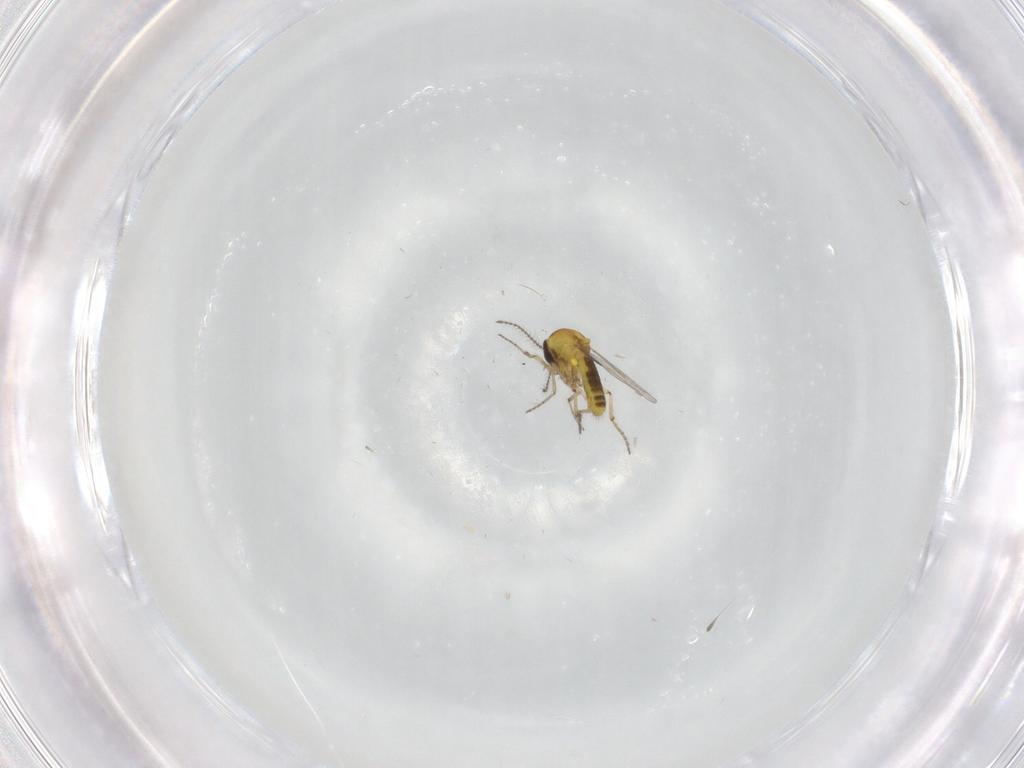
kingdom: Animalia
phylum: Arthropoda
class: Insecta
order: Diptera
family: Ceratopogonidae
